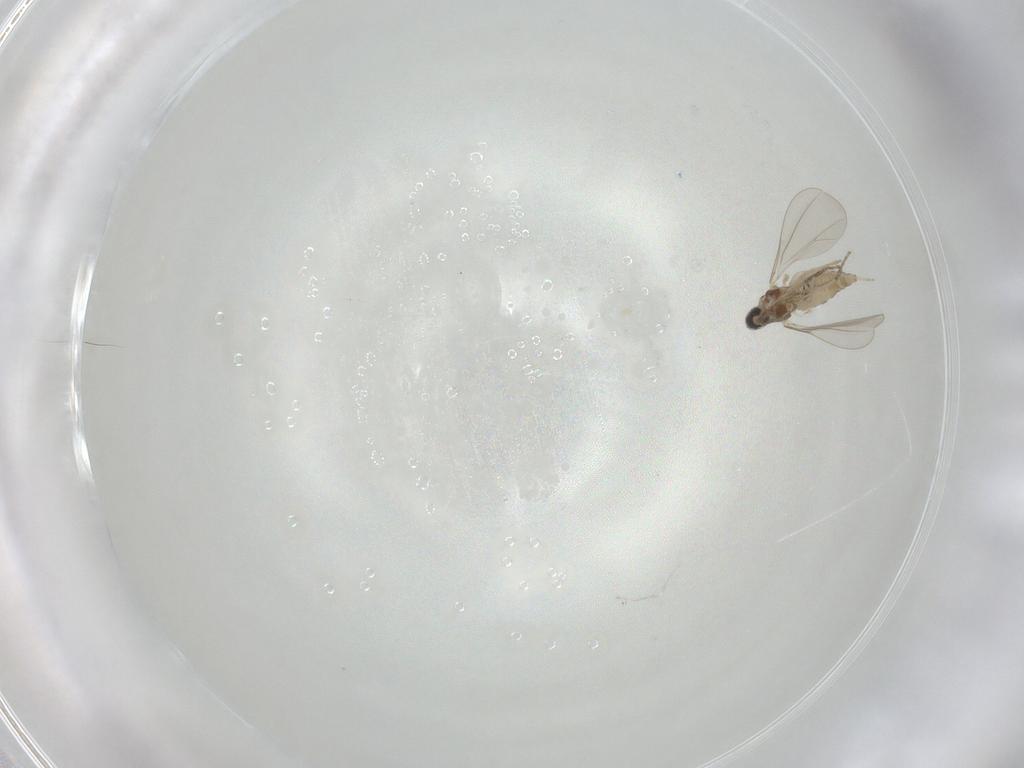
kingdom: Animalia
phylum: Arthropoda
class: Insecta
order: Diptera
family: Cecidomyiidae
